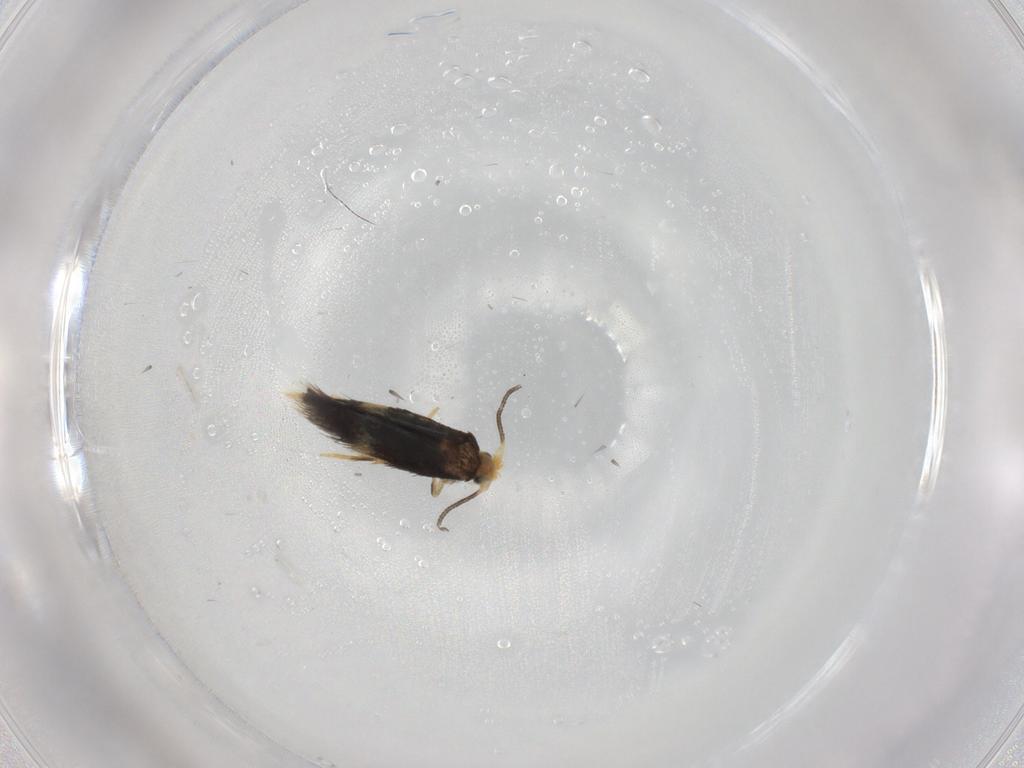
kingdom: Animalia
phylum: Arthropoda
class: Insecta
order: Lepidoptera
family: Nepticulidae
